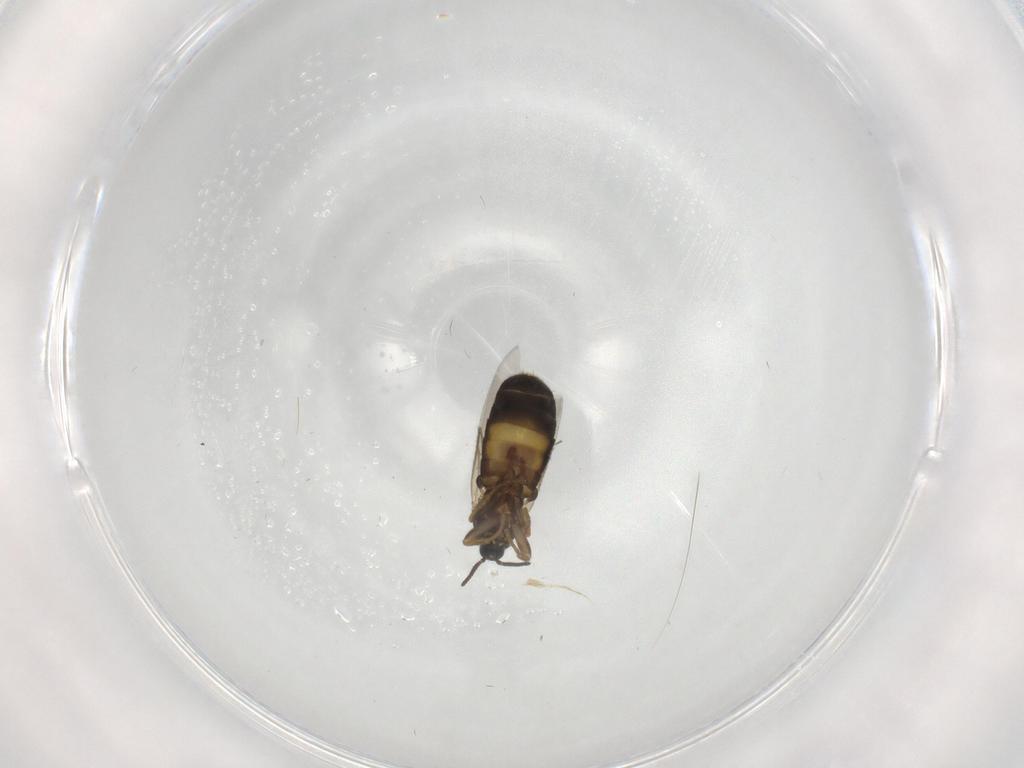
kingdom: Animalia
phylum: Arthropoda
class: Insecta
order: Diptera
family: Scatopsidae
